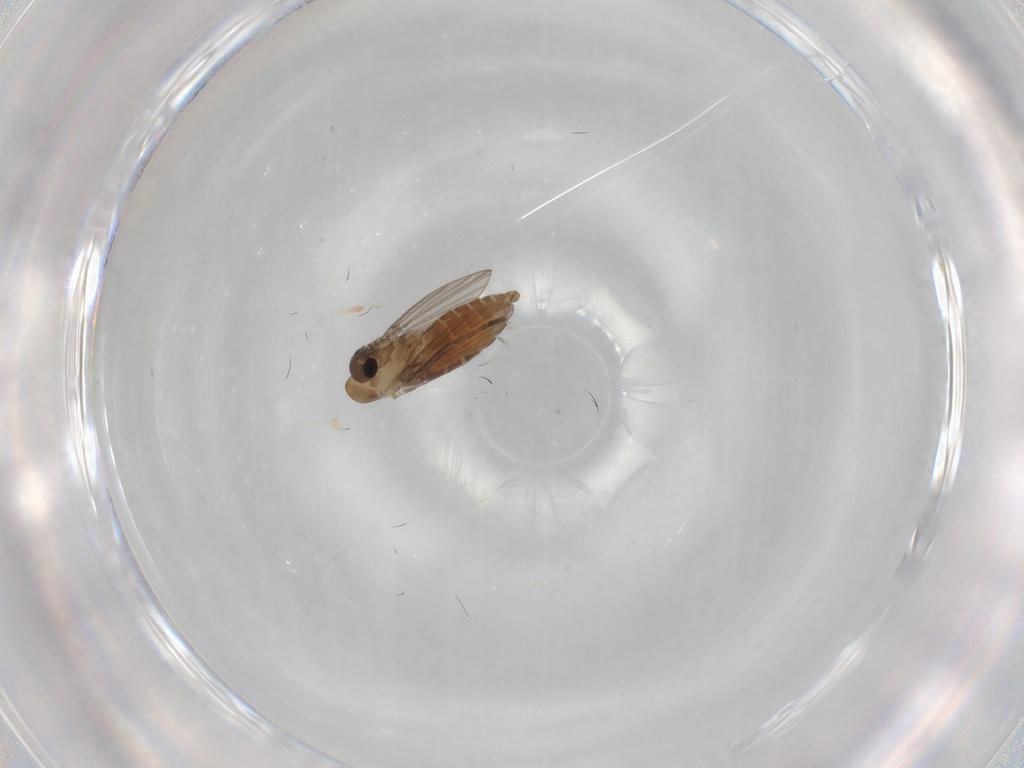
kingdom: Animalia
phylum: Arthropoda
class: Insecta
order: Diptera
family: Psychodidae
